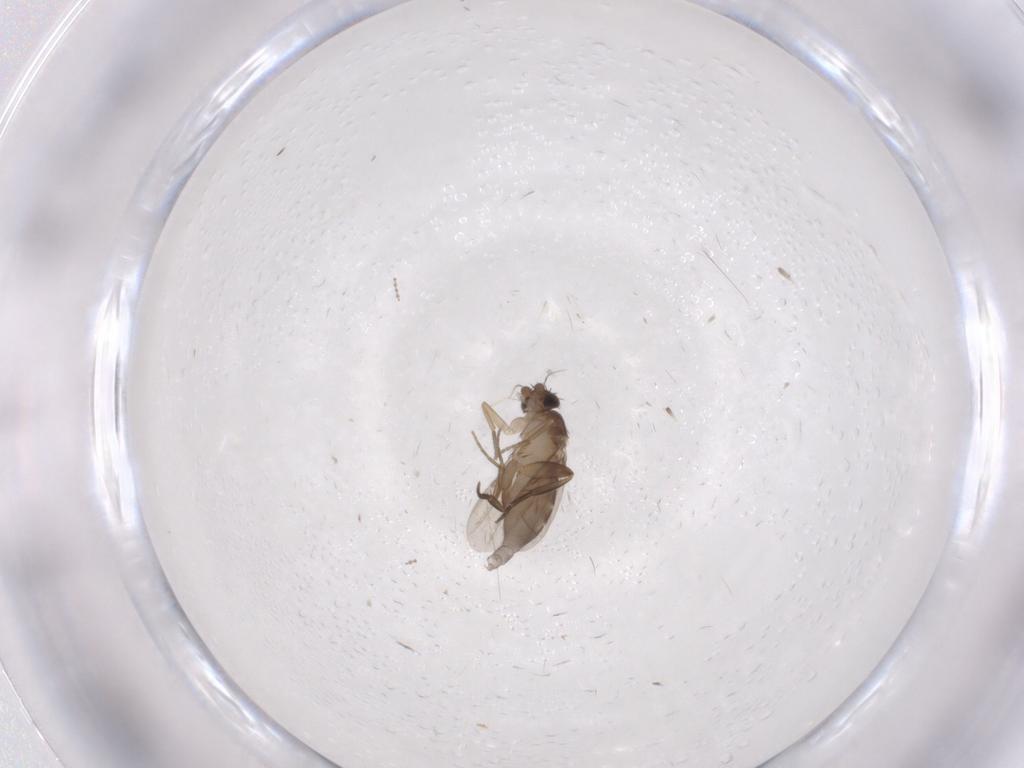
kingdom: Animalia
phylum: Arthropoda
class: Insecta
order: Diptera
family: Phoridae
